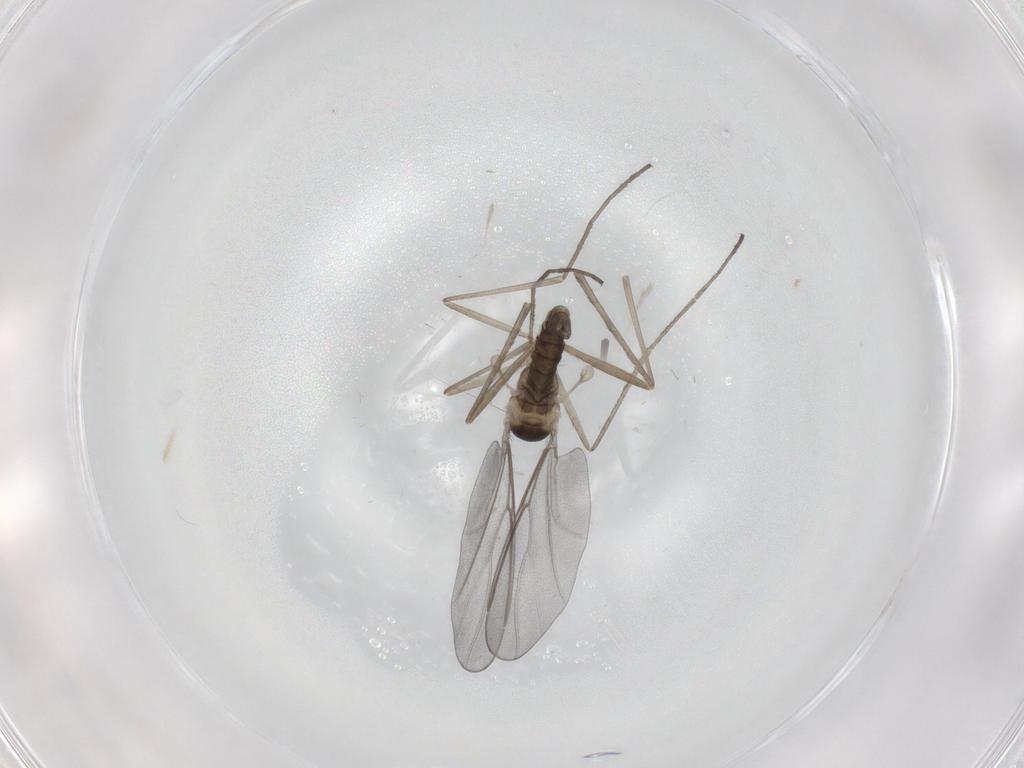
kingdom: Animalia
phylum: Arthropoda
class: Insecta
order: Diptera
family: Cecidomyiidae
